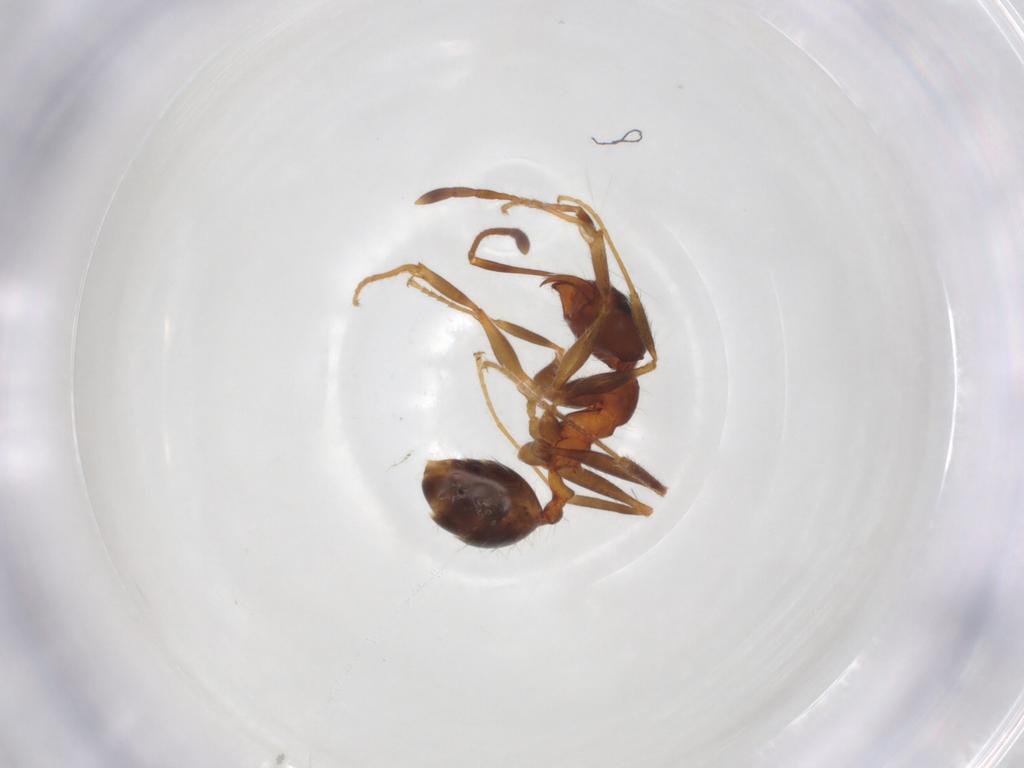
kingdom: Animalia
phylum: Arthropoda
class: Insecta
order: Hymenoptera
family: Formicidae
